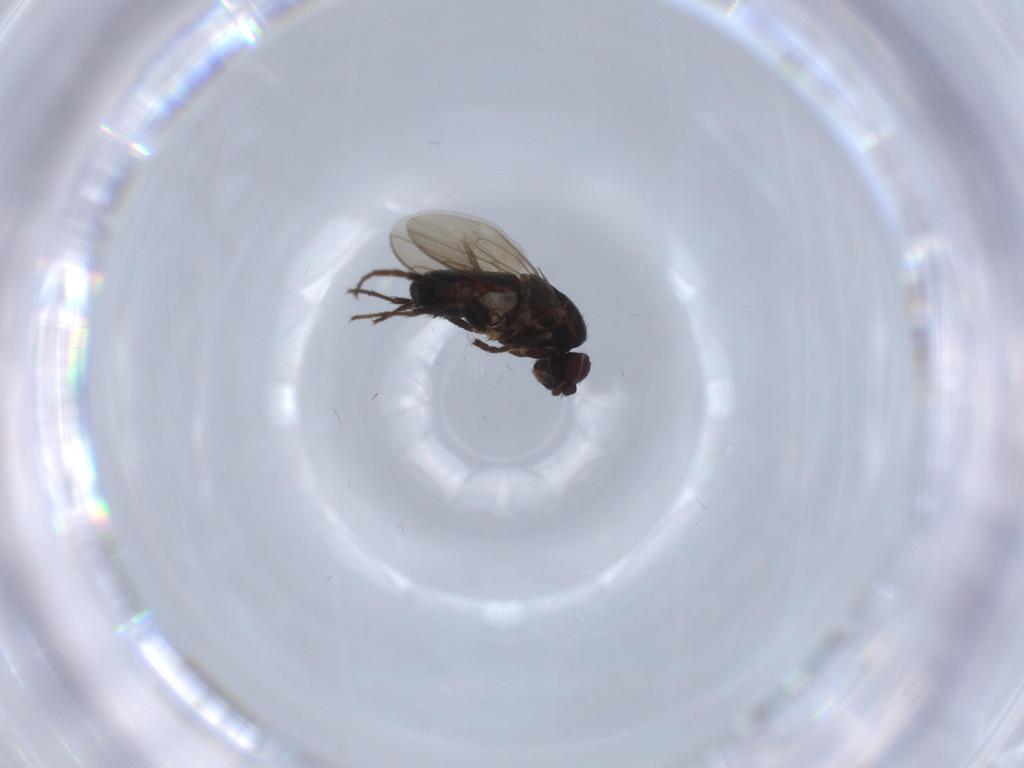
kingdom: Animalia
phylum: Arthropoda
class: Insecta
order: Diptera
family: Sphaeroceridae
